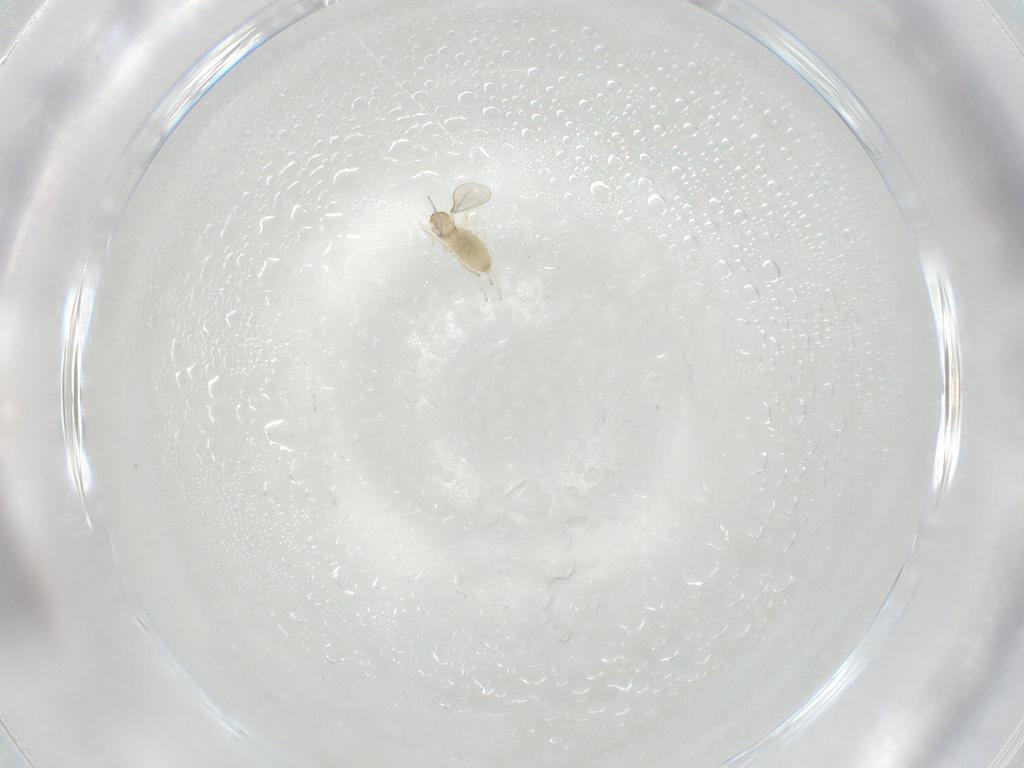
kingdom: Animalia
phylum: Arthropoda
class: Insecta
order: Diptera
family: Cecidomyiidae
